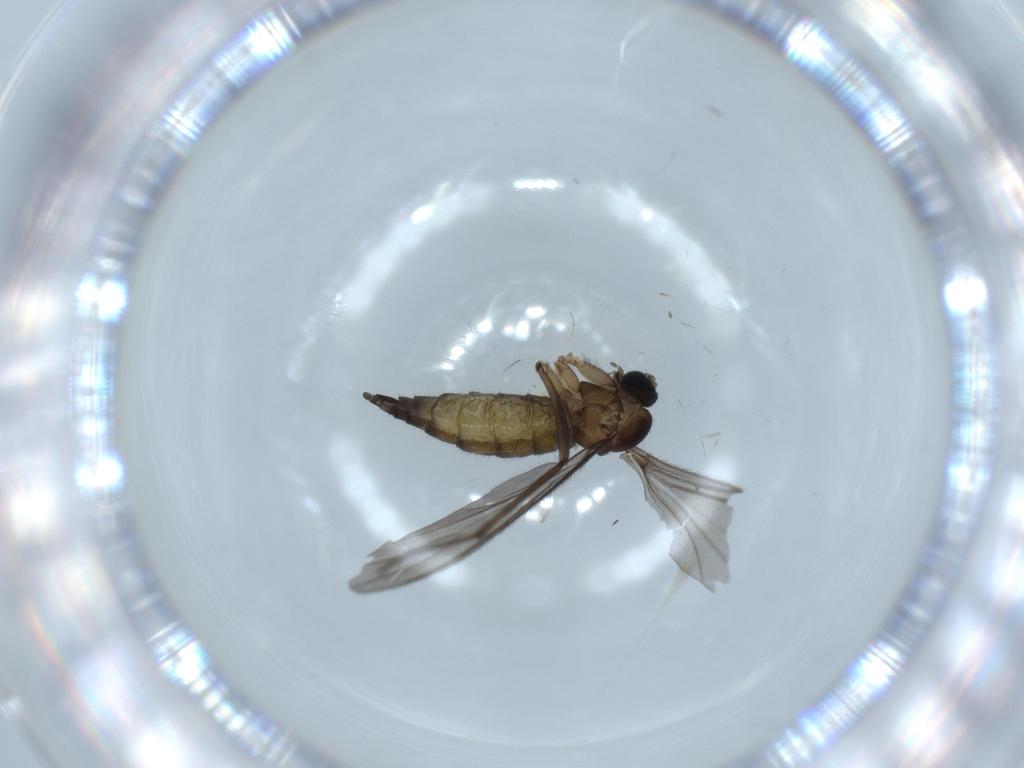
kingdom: Animalia
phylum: Arthropoda
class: Insecta
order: Diptera
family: Sciaridae
